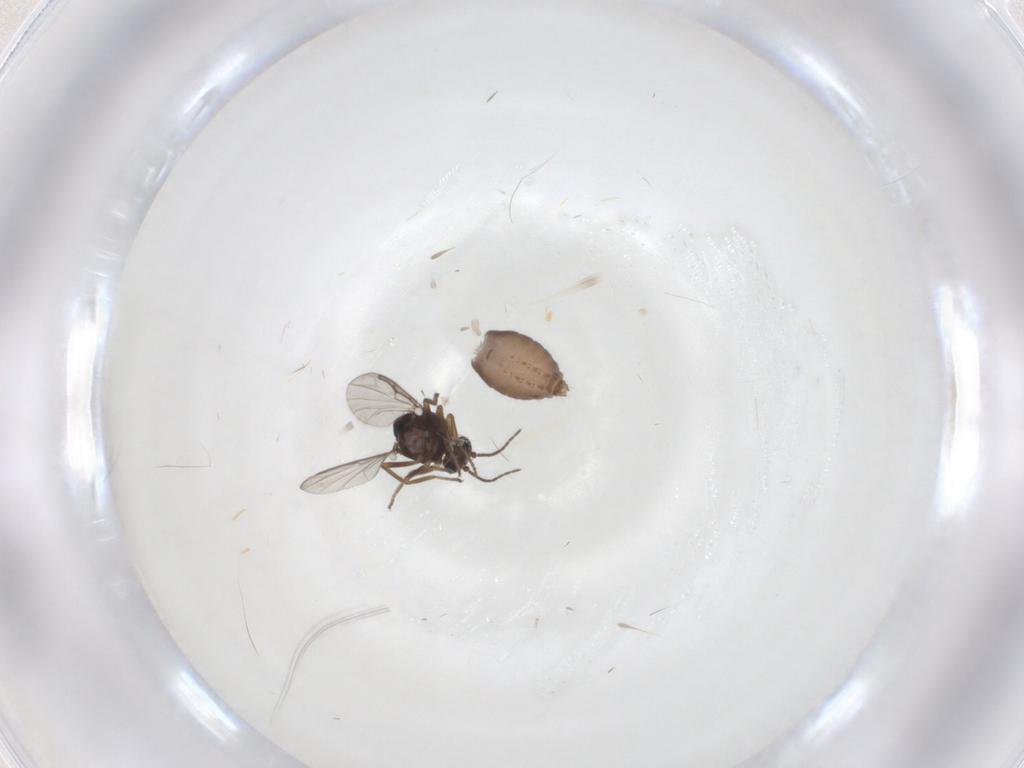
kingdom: Animalia
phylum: Arthropoda
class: Insecta
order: Diptera
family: Ceratopogonidae
